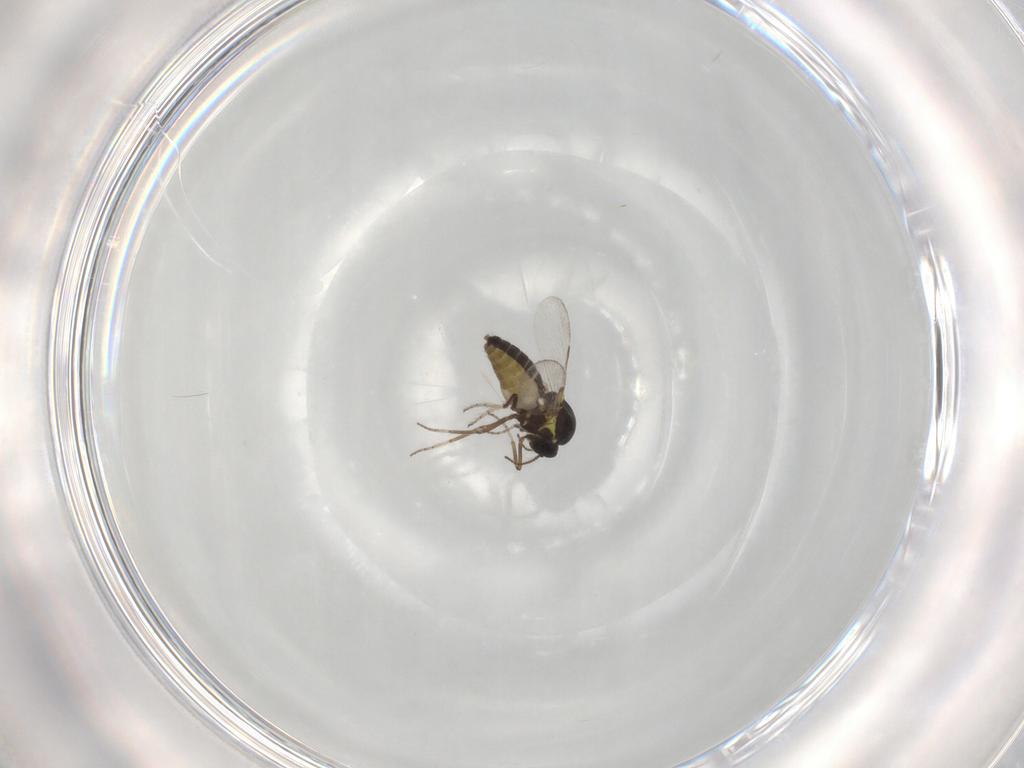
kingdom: Animalia
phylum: Arthropoda
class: Insecta
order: Diptera
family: Ceratopogonidae
